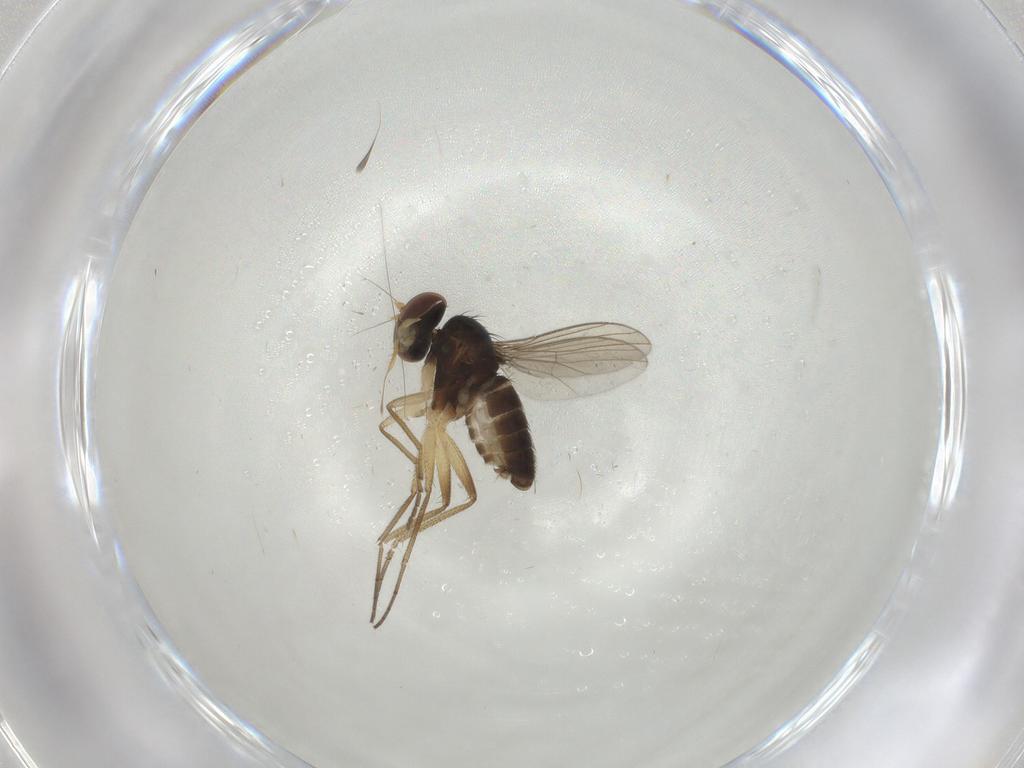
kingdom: Animalia
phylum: Arthropoda
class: Insecta
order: Diptera
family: Dolichopodidae
